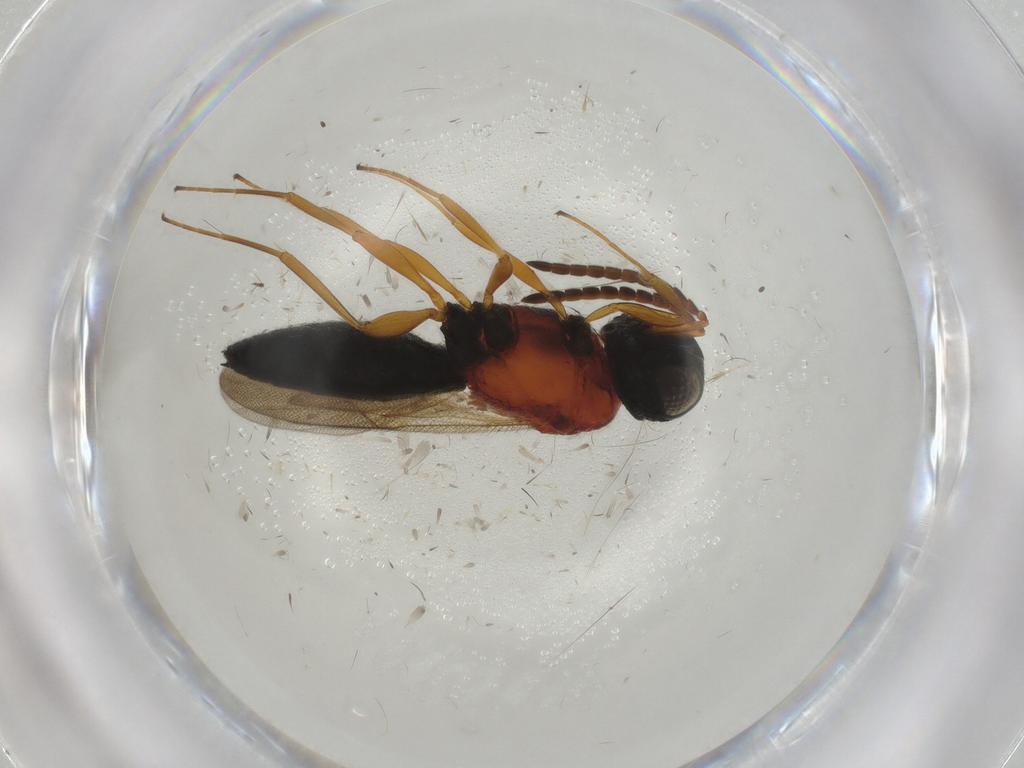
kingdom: Animalia
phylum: Arthropoda
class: Insecta
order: Hymenoptera
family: Scelionidae
